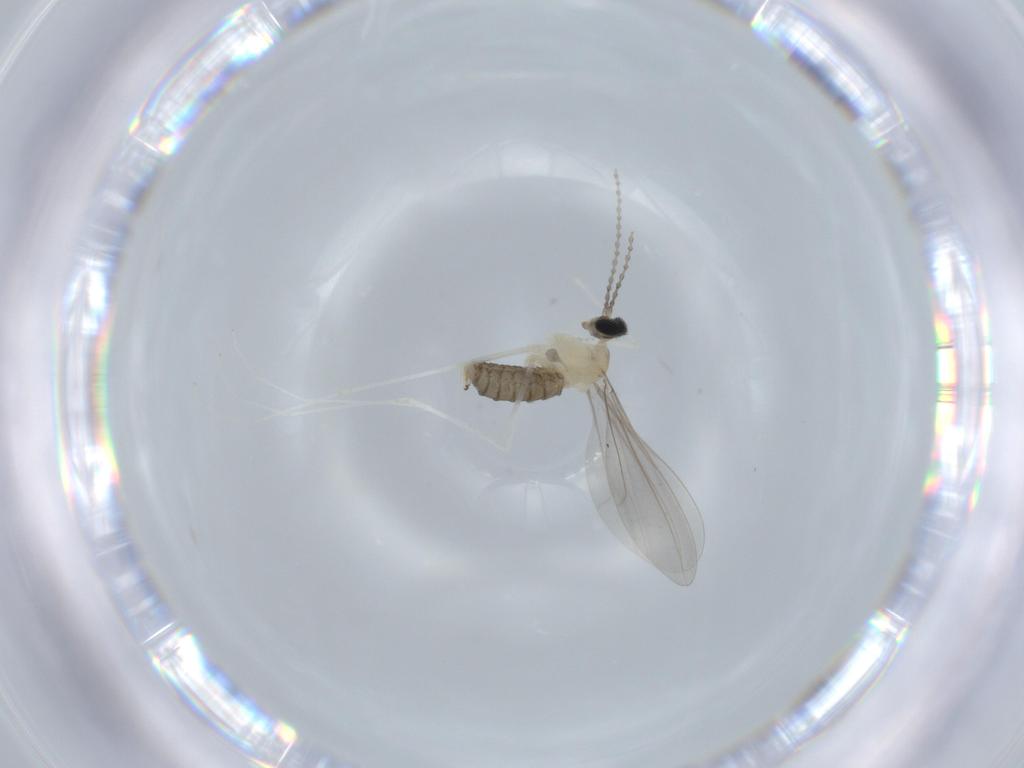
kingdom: Animalia
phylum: Arthropoda
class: Insecta
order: Diptera
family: Cecidomyiidae
